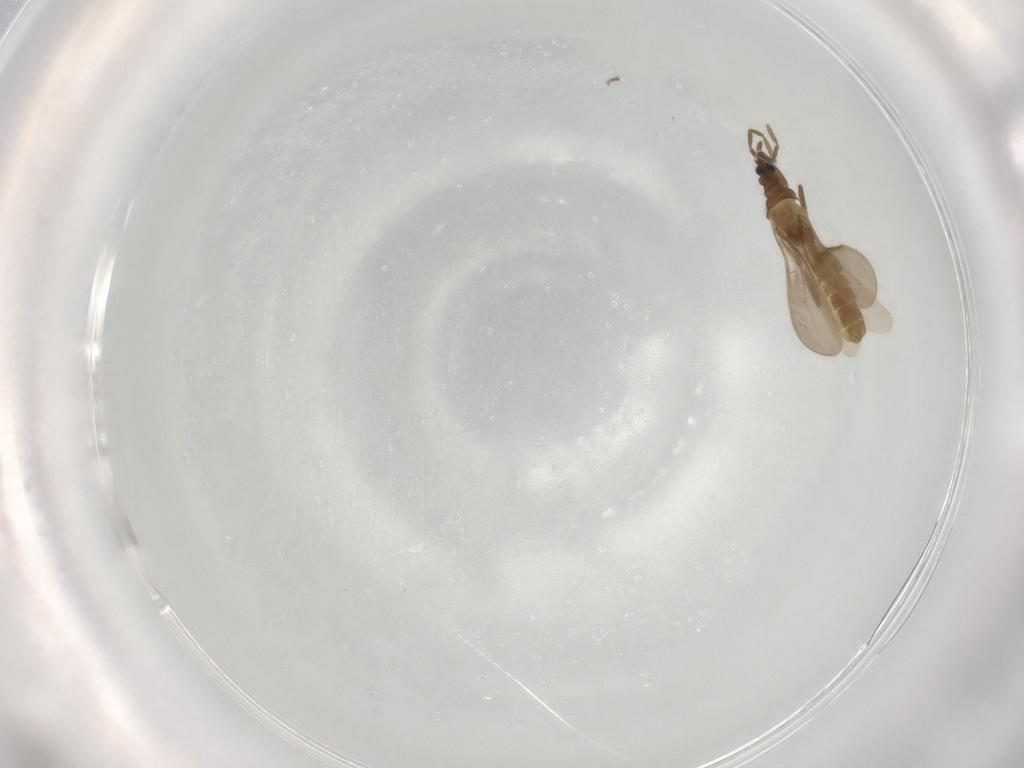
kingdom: Animalia
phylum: Arthropoda
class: Insecta
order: Hemiptera
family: Enicocephalidae
